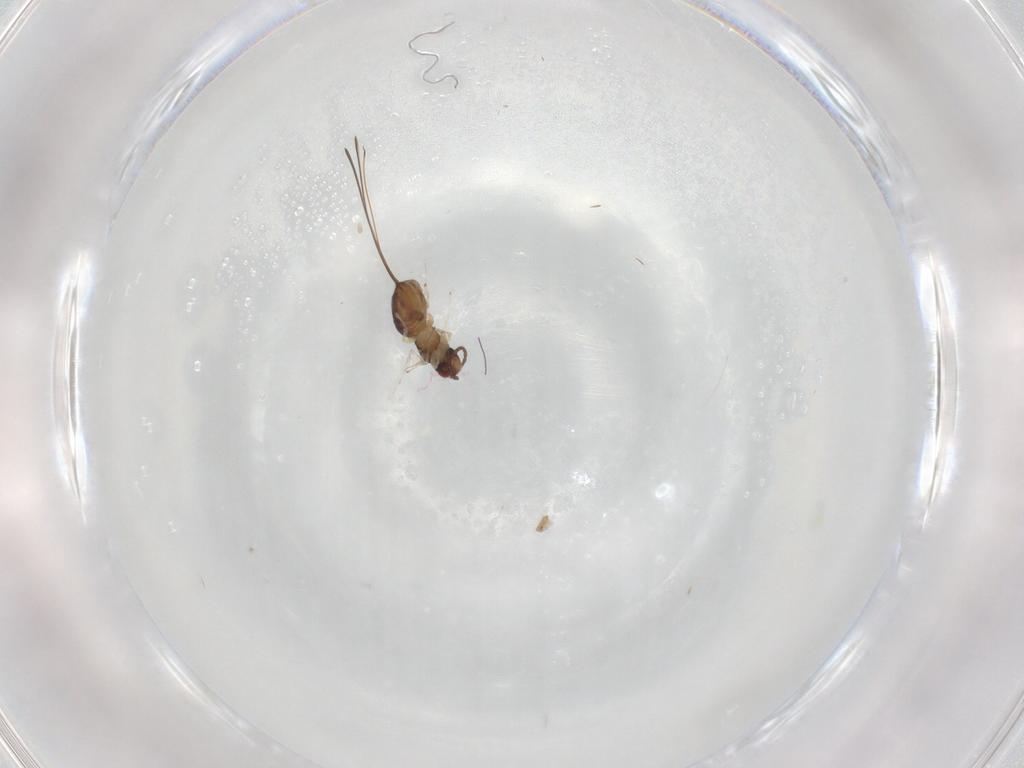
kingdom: Animalia
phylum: Arthropoda
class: Insecta
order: Hymenoptera
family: Pteromalidae
